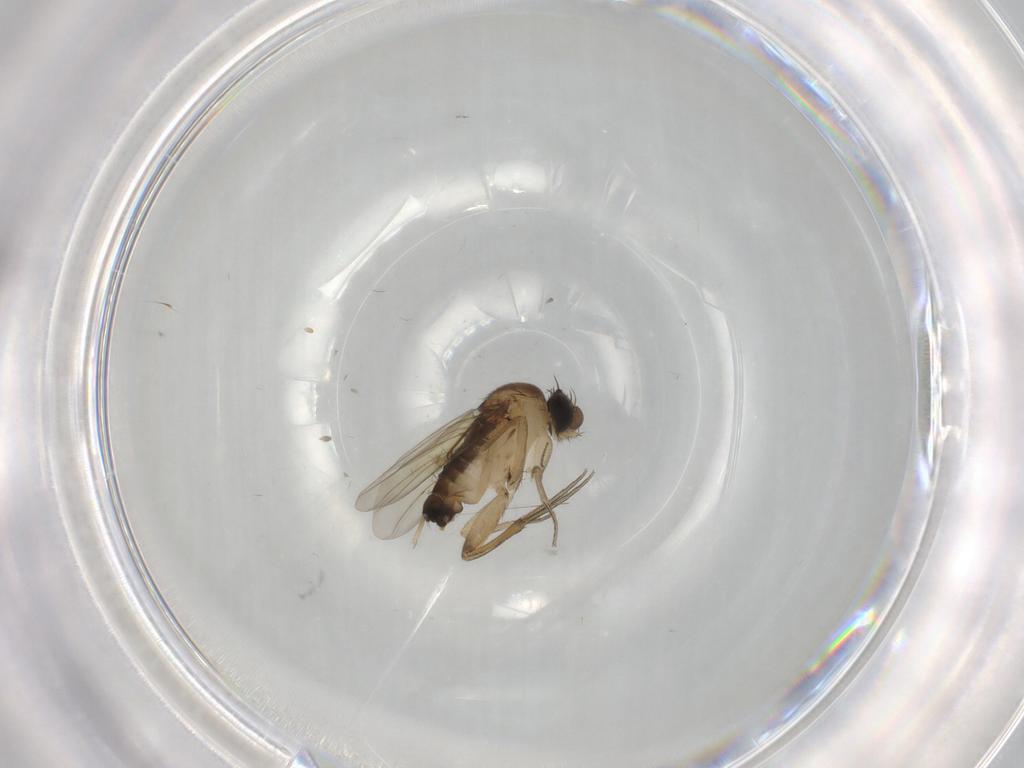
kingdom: Animalia
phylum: Arthropoda
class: Insecta
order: Diptera
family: Phoridae
